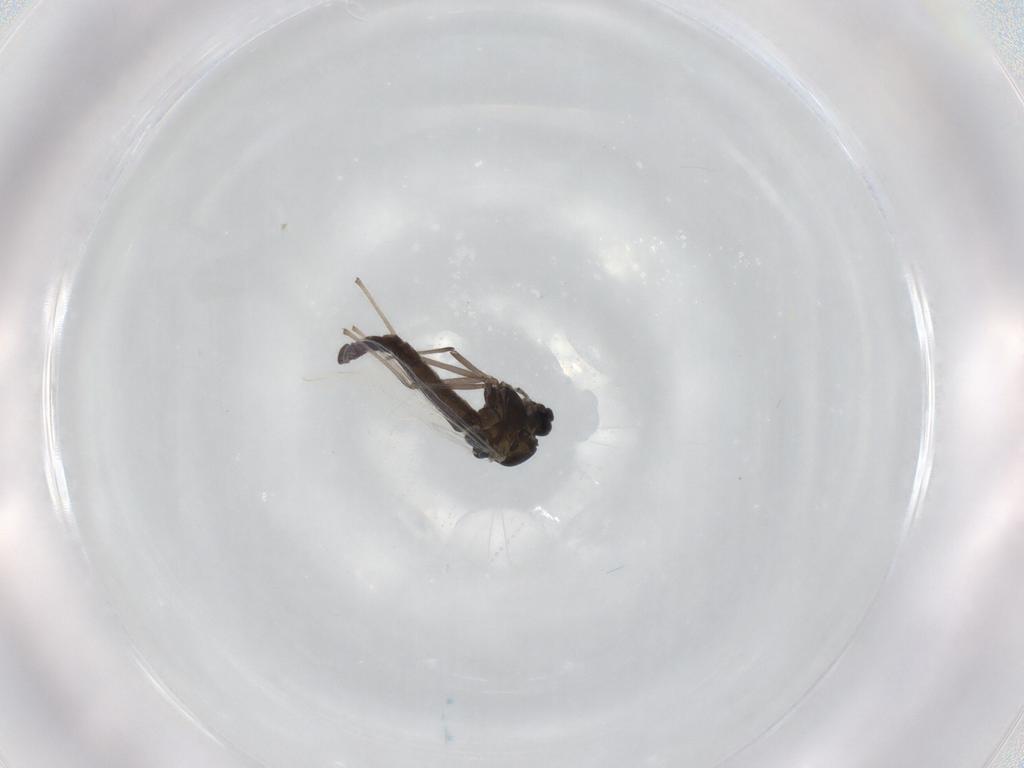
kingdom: Animalia
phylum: Arthropoda
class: Insecta
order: Diptera
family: Chironomidae
